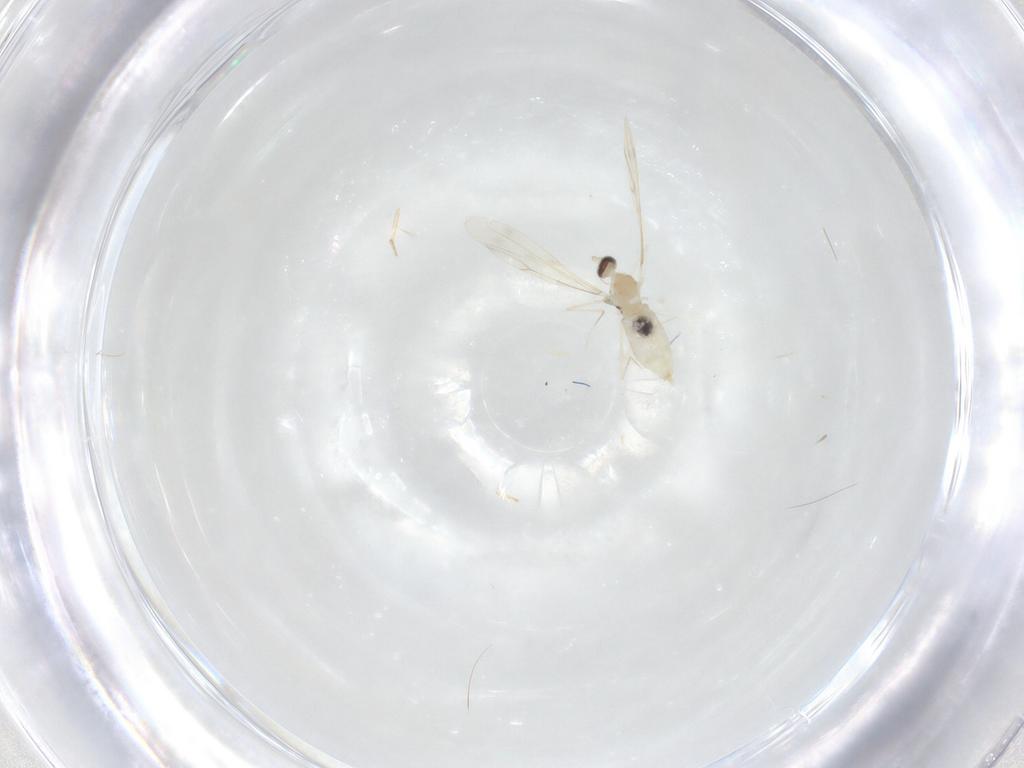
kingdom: Animalia
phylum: Arthropoda
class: Insecta
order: Diptera
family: Cecidomyiidae
